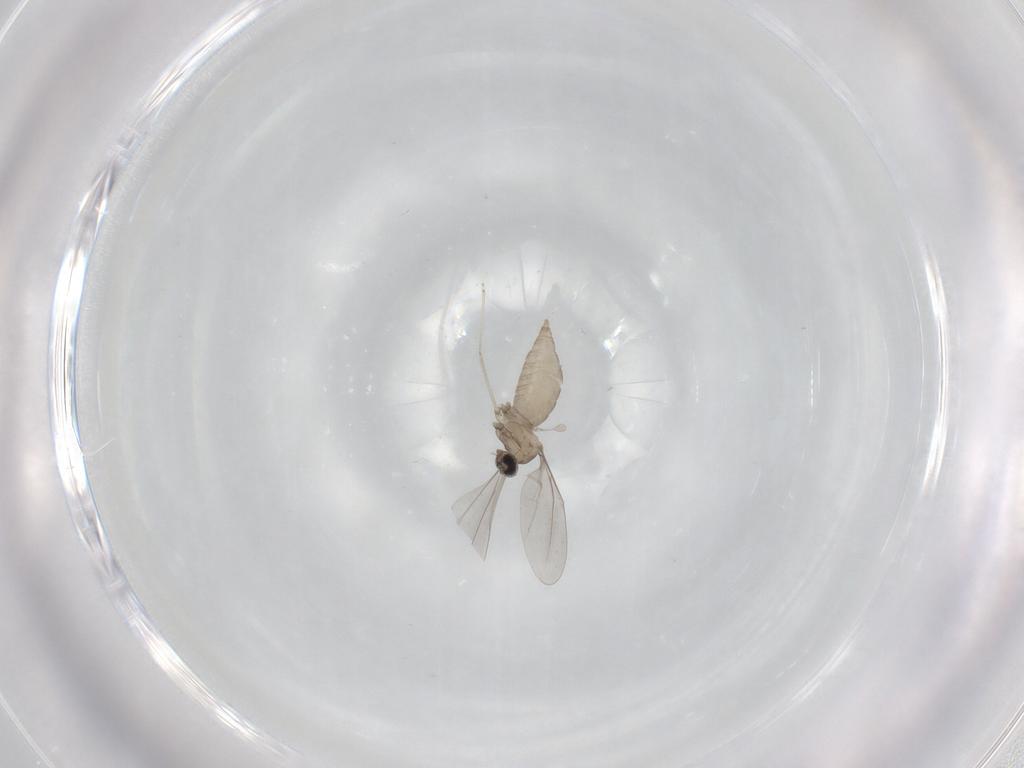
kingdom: Animalia
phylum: Arthropoda
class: Insecta
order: Diptera
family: Cecidomyiidae
